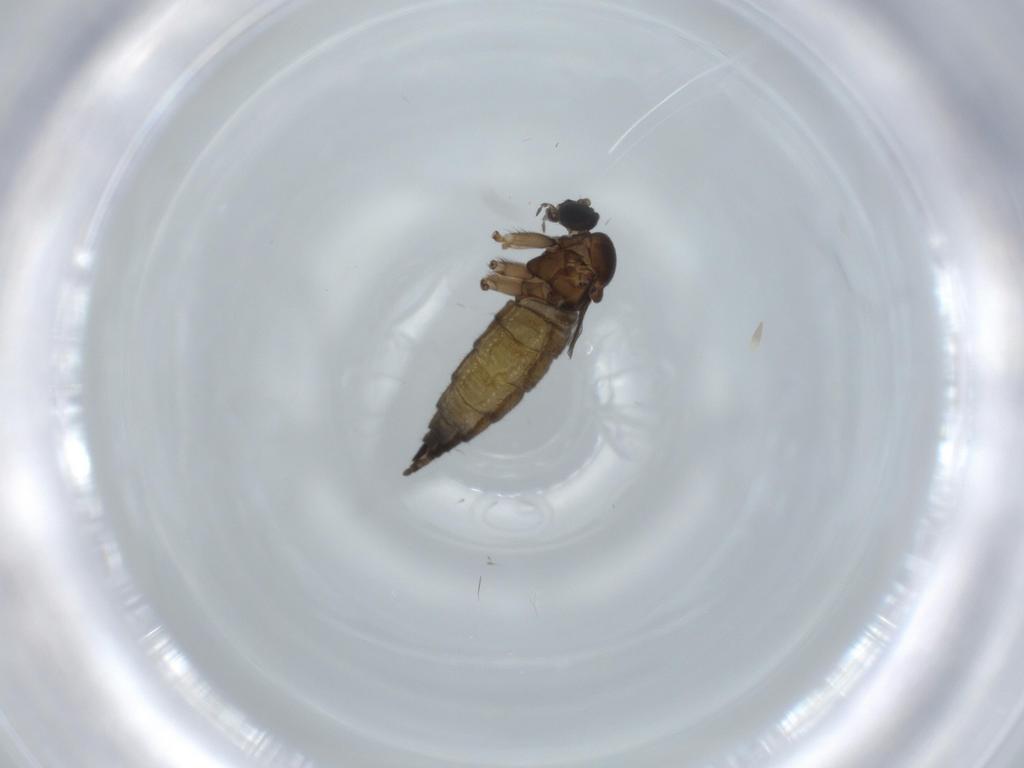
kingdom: Animalia
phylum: Arthropoda
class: Insecta
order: Diptera
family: Sciaridae
